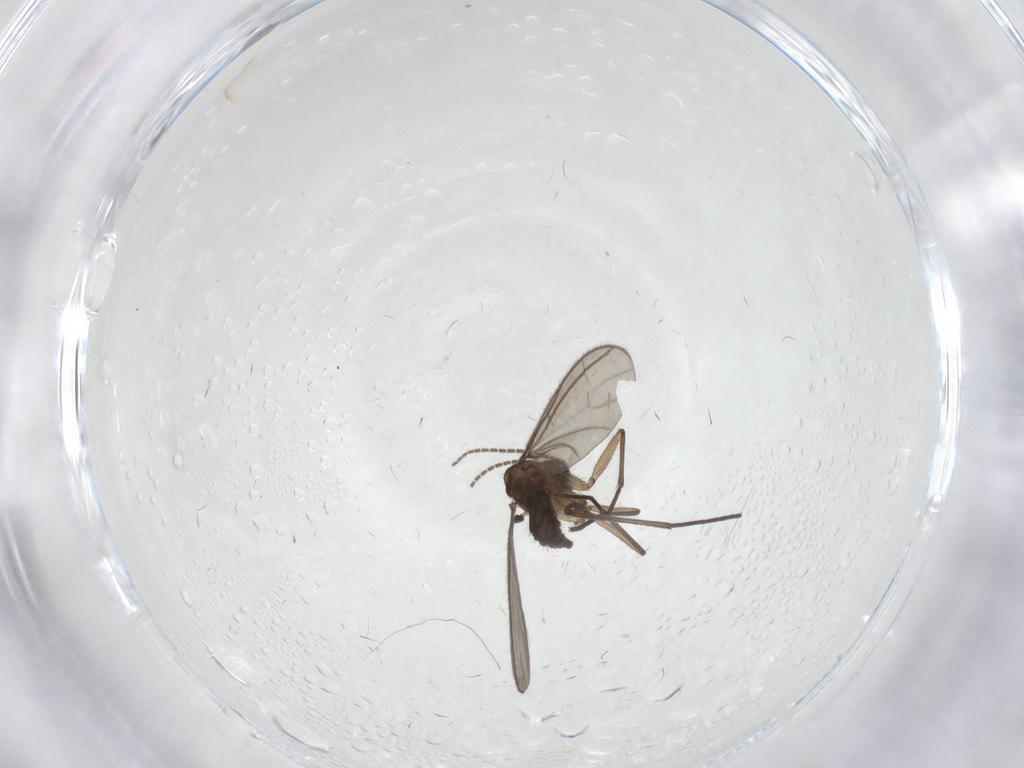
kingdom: Animalia
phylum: Arthropoda
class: Insecta
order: Diptera
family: Sciaridae
